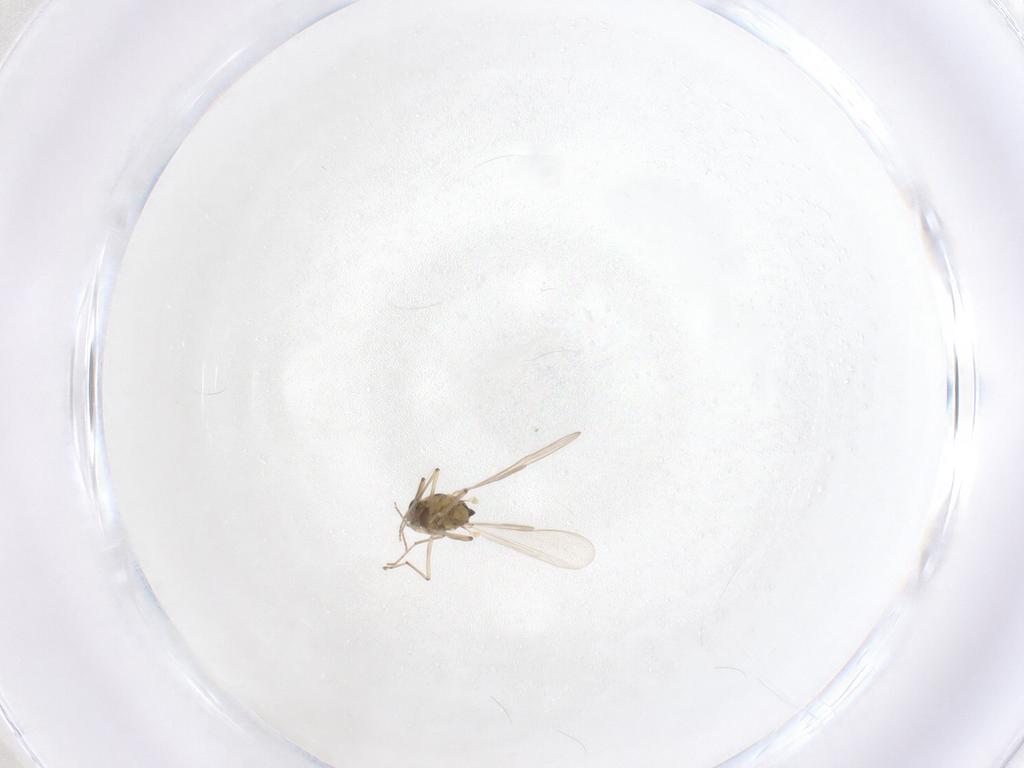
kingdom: Animalia
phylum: Arthropoda
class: Insecta
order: Diptera
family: Chironomidae
